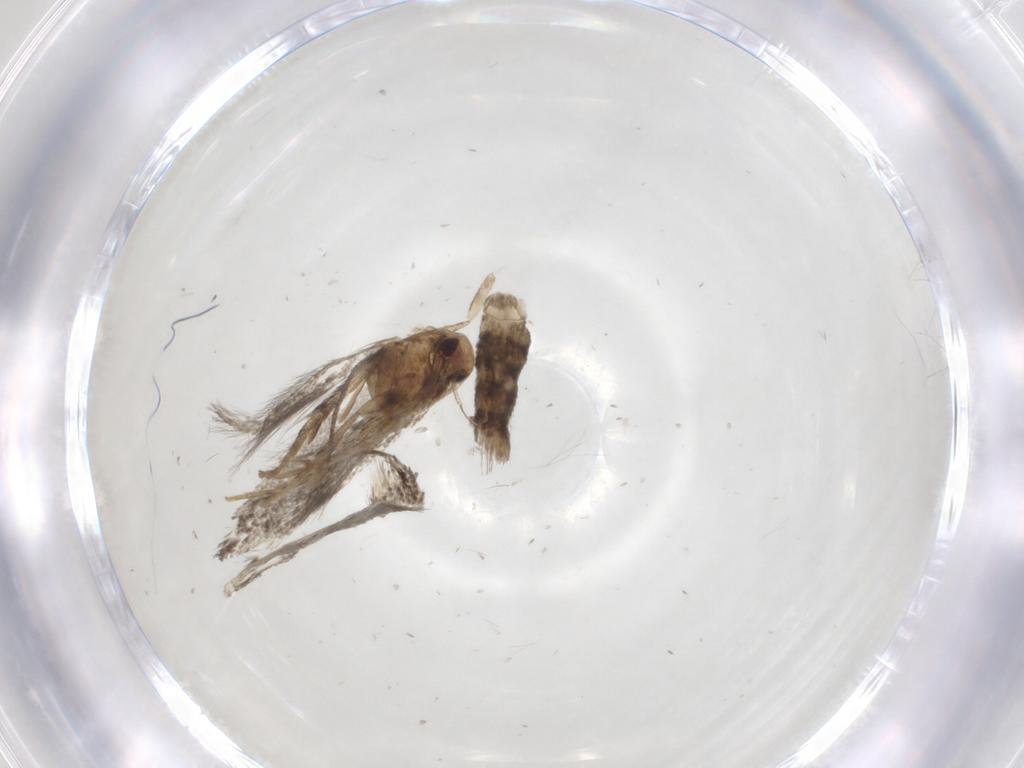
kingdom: Animalia
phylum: Arthropoda
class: Insecta
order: Lepidoptera
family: Elachistidae
